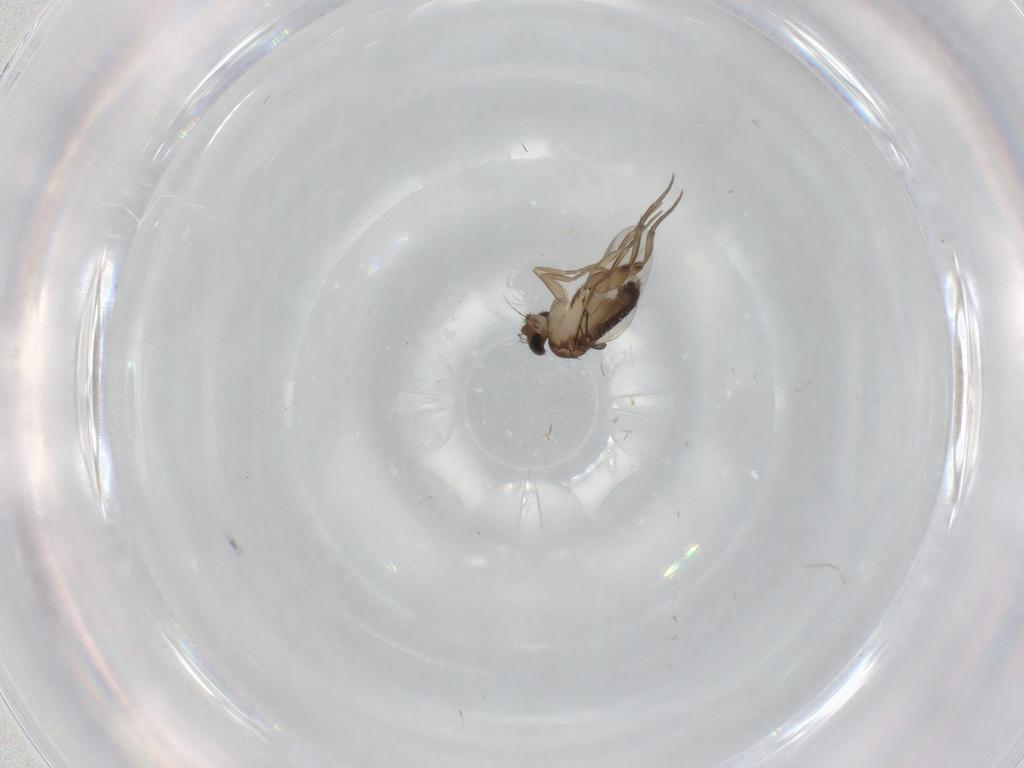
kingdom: Animalia
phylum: Arthropoda
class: Insecta
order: Diptera
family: Phoridae
